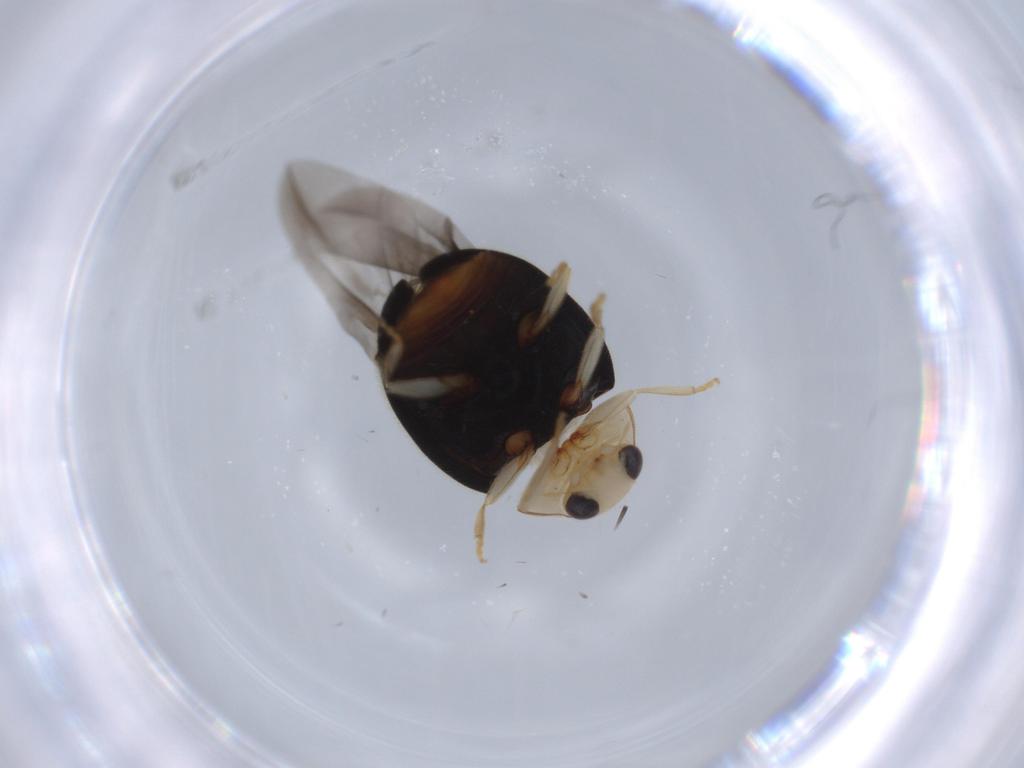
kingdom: Animalia
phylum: Arthropoda
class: Insecta
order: Coleoptera
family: Coccinellidae
